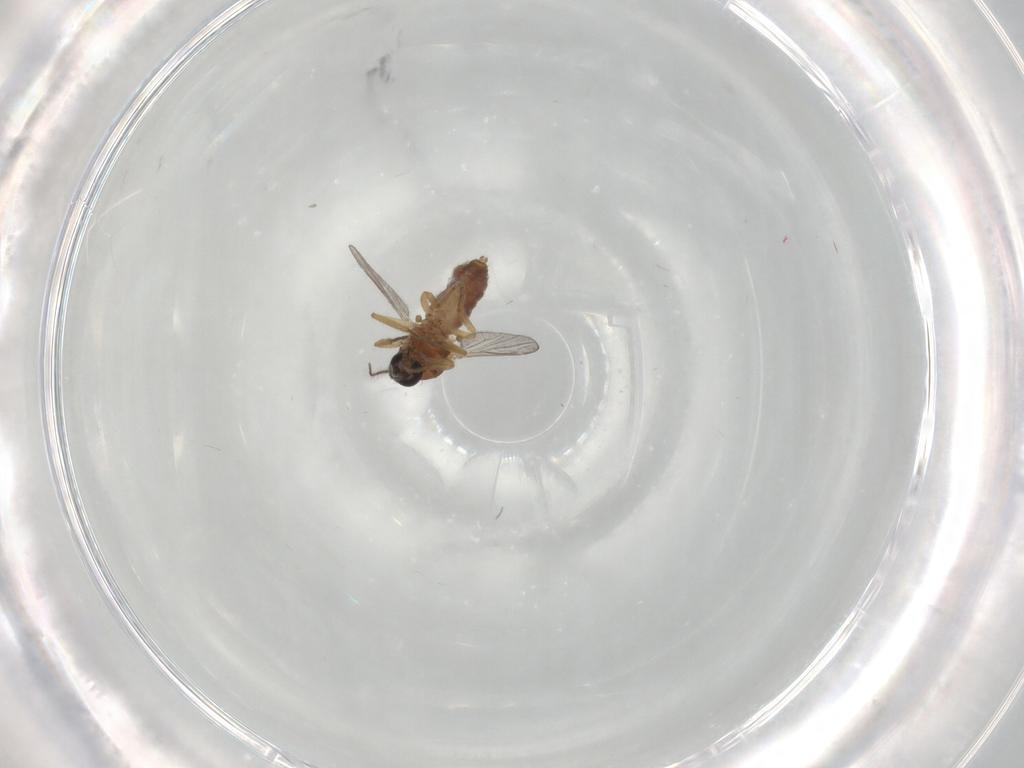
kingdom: Animalia
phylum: Arthropoda
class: Insecta
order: Diptera
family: Ceratopogonidae
